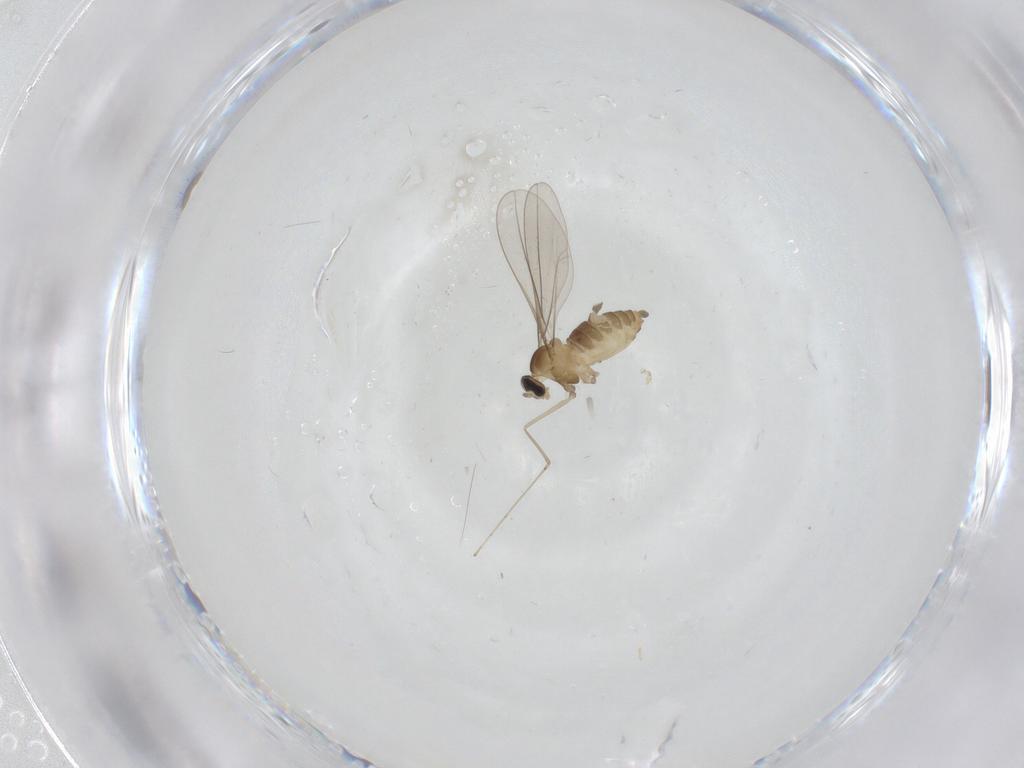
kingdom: Animalia
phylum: Arthropoda
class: Insecta
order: Diptera
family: Cecidomyiidae
